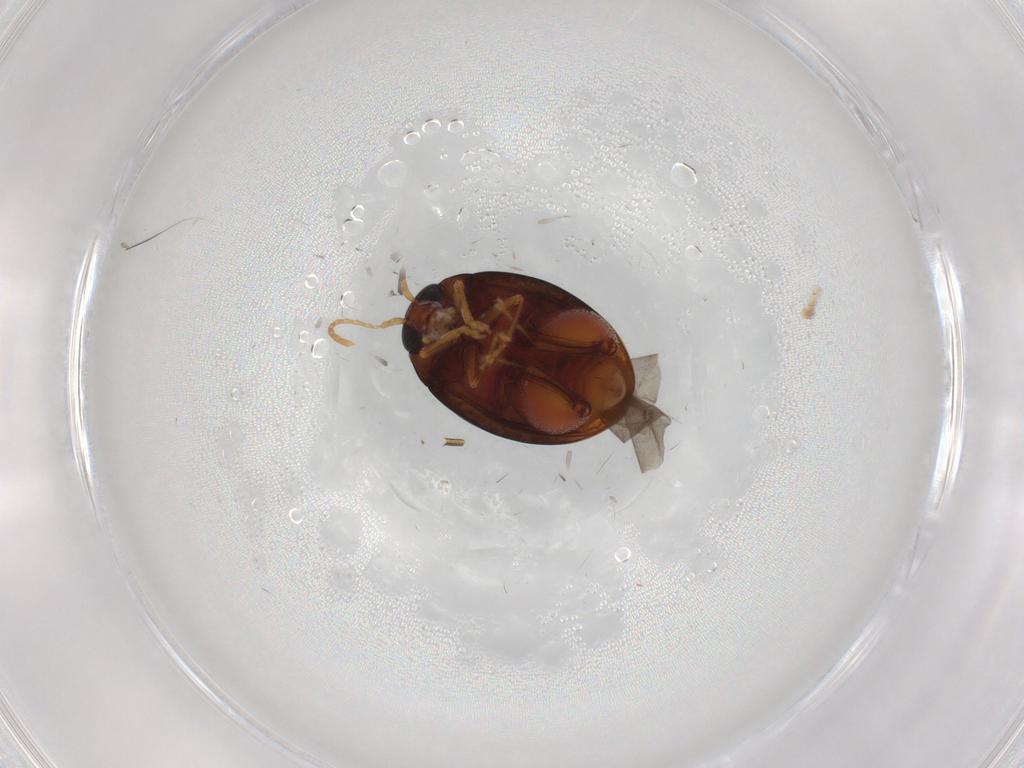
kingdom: Animalia
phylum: Arthropoda
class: Insecta
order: Coleoptera
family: Chrysomelidae
